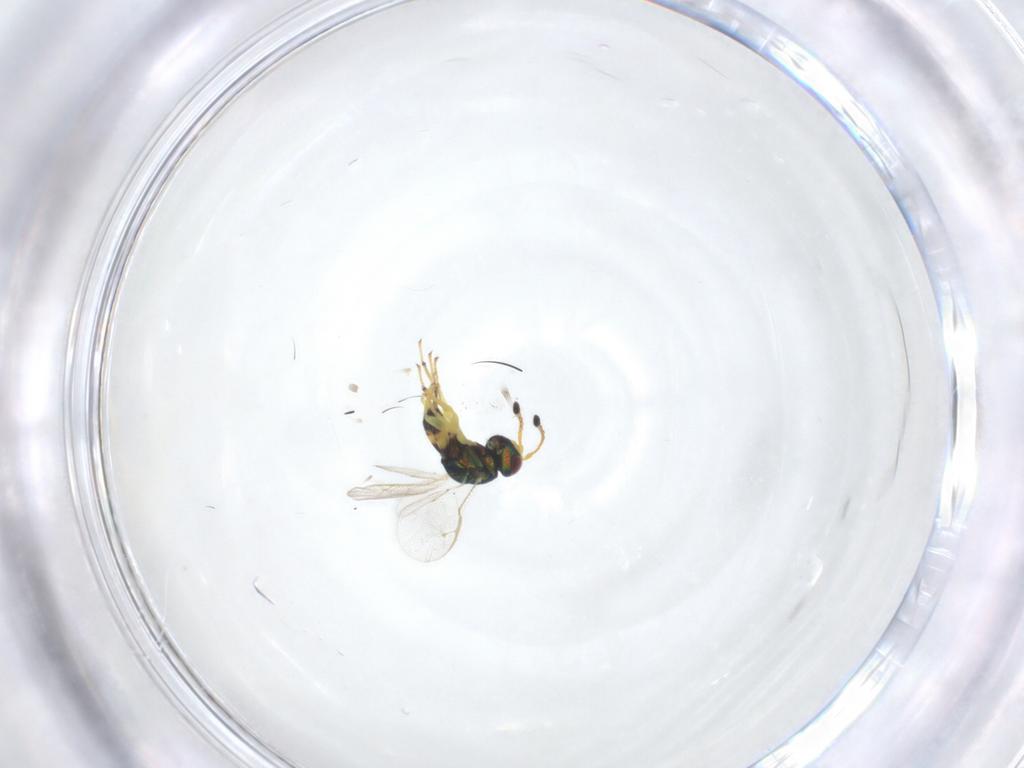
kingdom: Animalia
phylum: Arthropoda
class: Insecta
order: Hymenoptera
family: Pteromalidae
